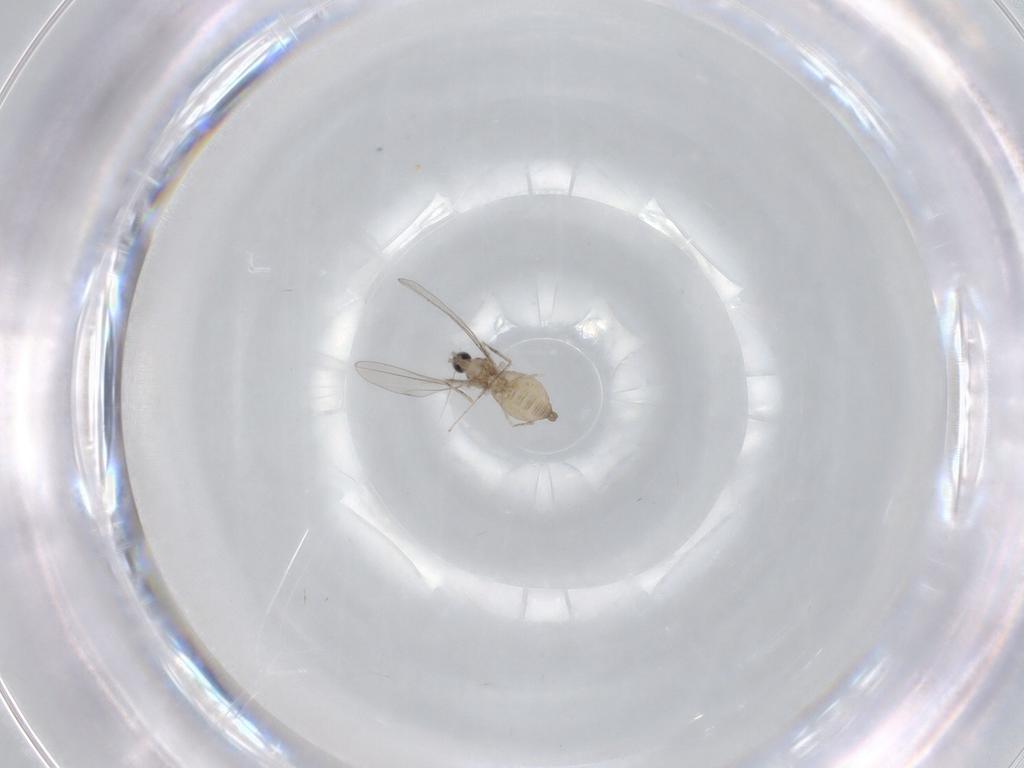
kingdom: Animalia
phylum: Arthropoda
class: Insecta
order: Diptera
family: Cecidomyiidae
